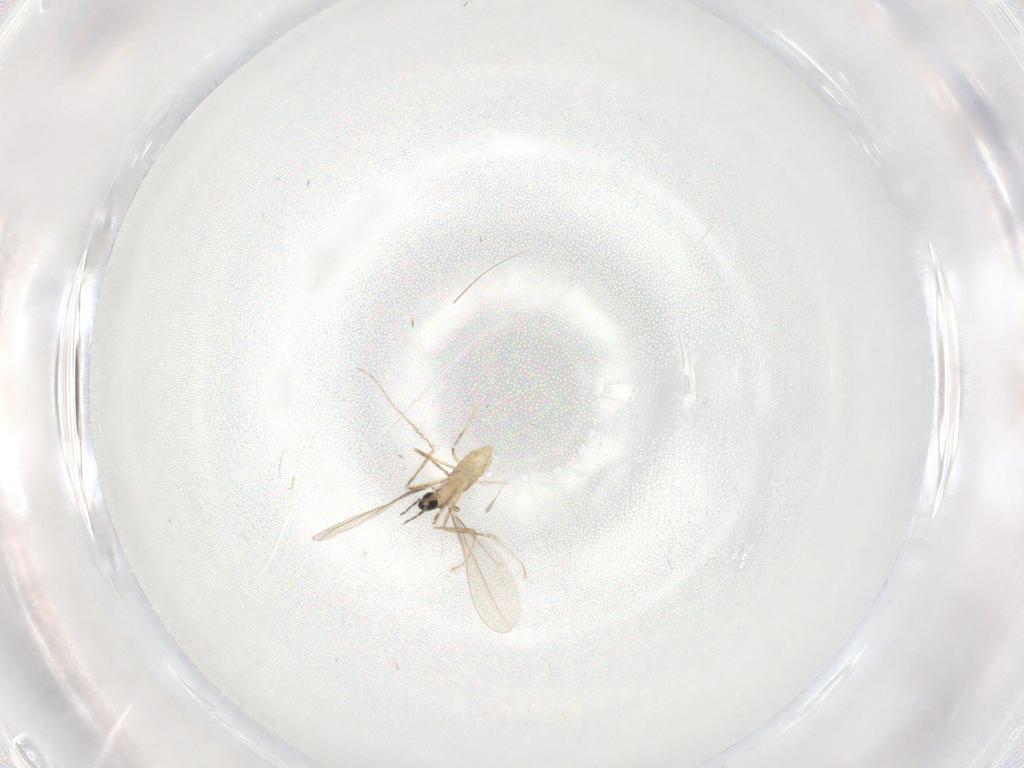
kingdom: Animalia
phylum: Arthropoda
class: Insecta
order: Diptera
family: Cecidomyiidae
